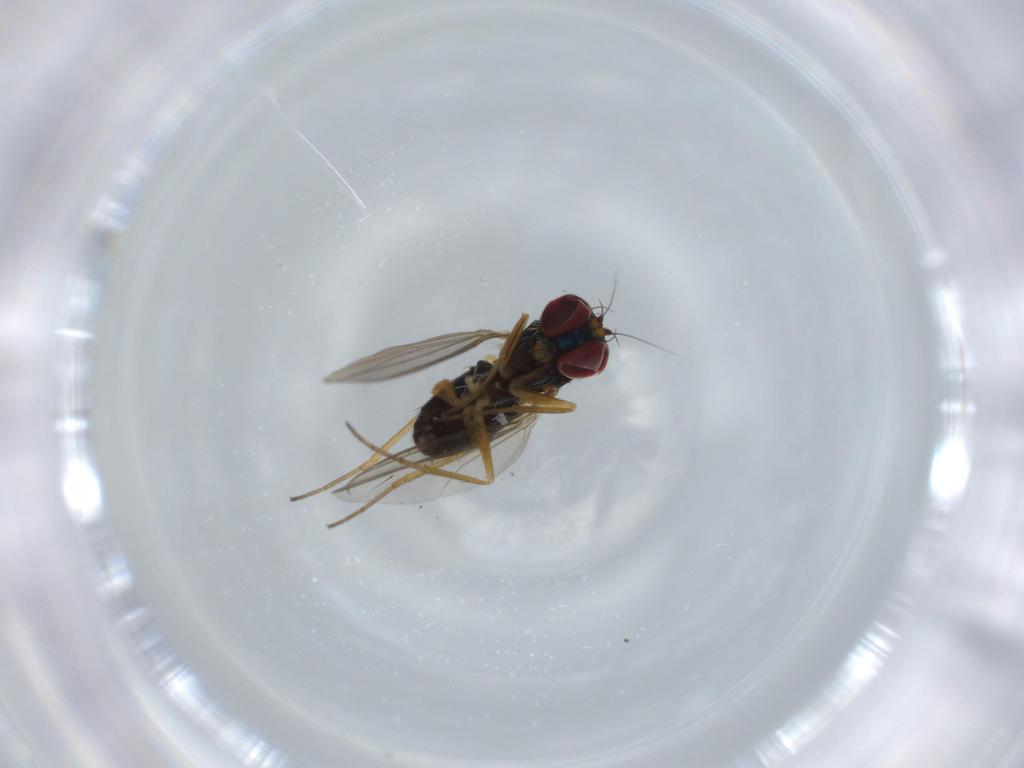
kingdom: Animalia
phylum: Arthropoda
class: Insecta
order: Diptera
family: Dolichopodidae
